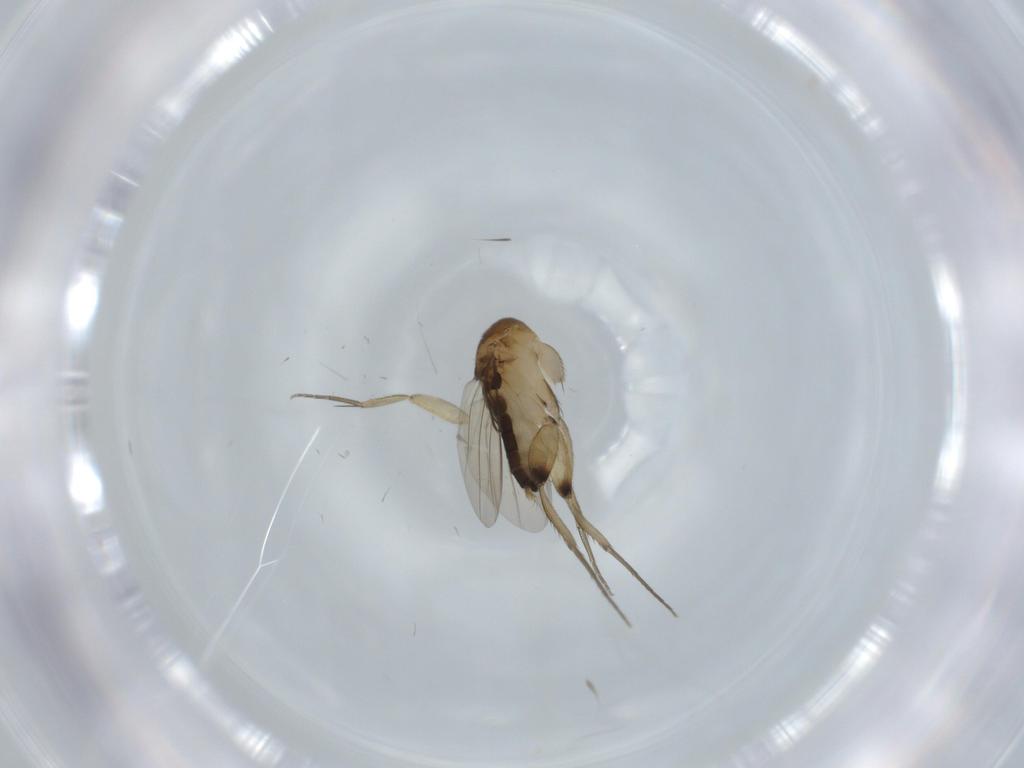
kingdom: Animalia
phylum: Arthropoda
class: Insecta
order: Diptera
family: Phoridae
